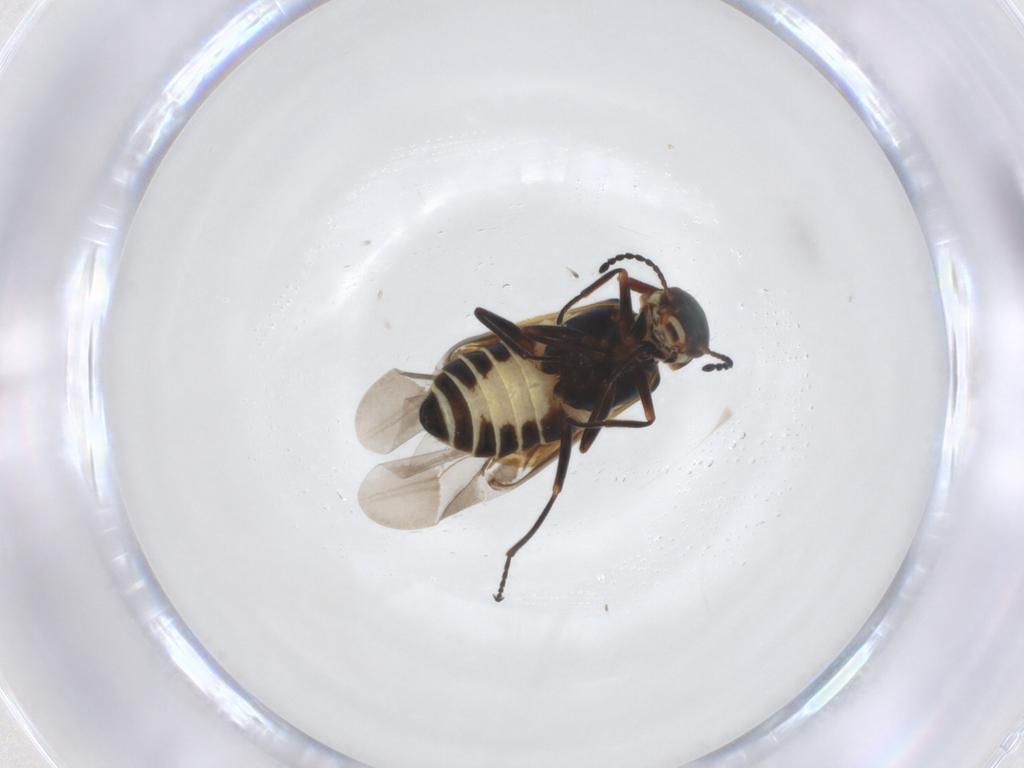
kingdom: Animalia
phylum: Arthropoda
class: Insecta
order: Coleoptera
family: Melyridae
